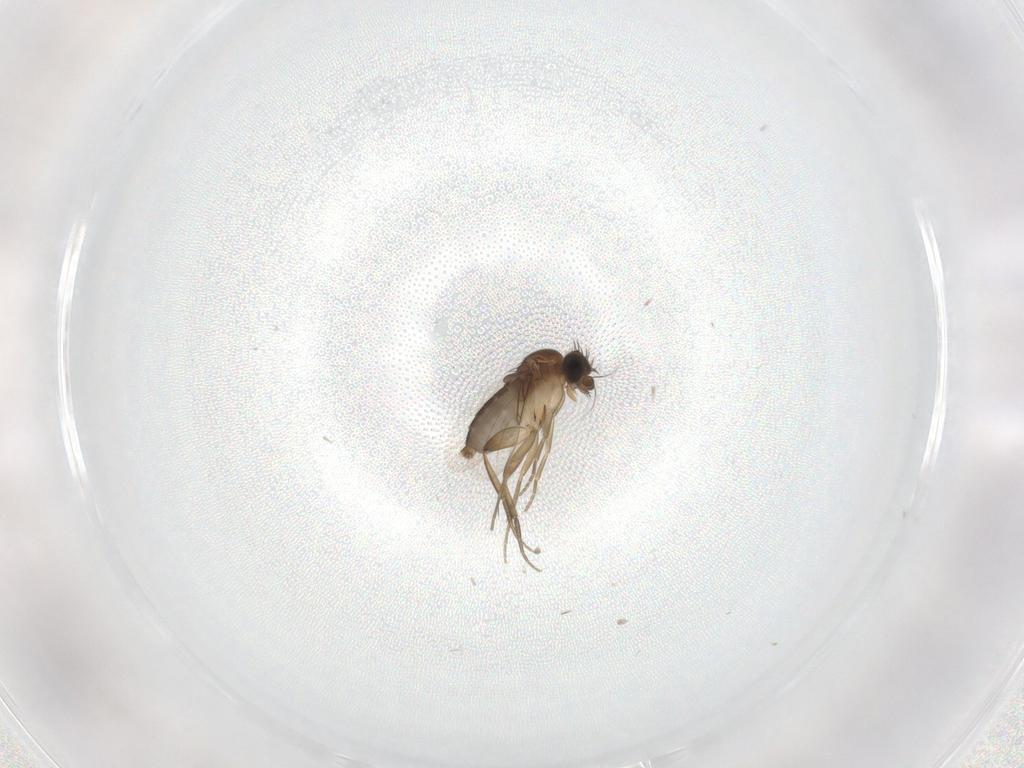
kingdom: Animalia
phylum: Arthropoda
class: Insecta
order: Diptera
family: Phoridae
